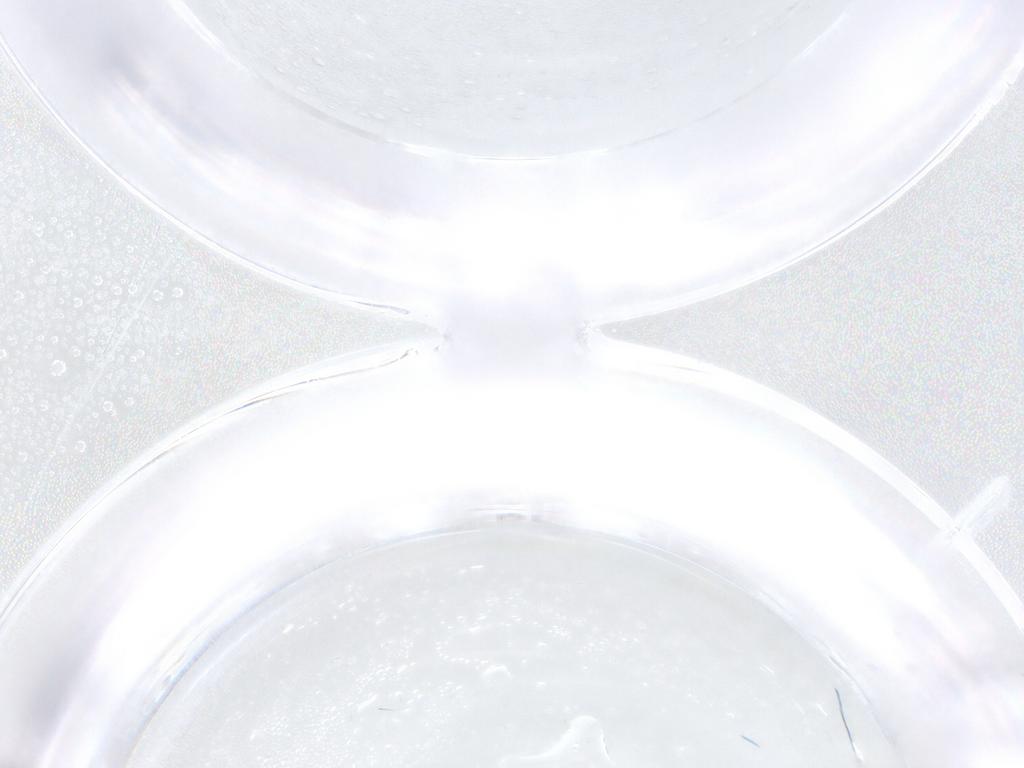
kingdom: Animalia
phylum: Arthropoda
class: Insecta
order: Diptera
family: Ceratopogonidae
